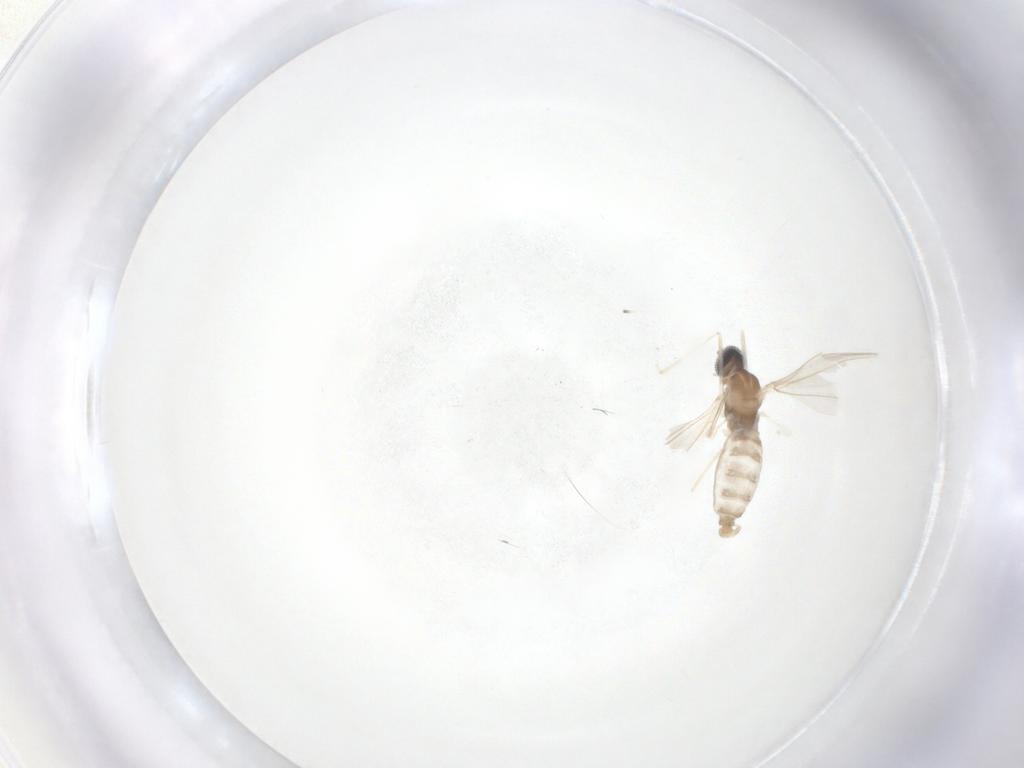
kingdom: Animalia
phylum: Arthropoda
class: Insecta
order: Diptera
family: Cecidomyiidae
